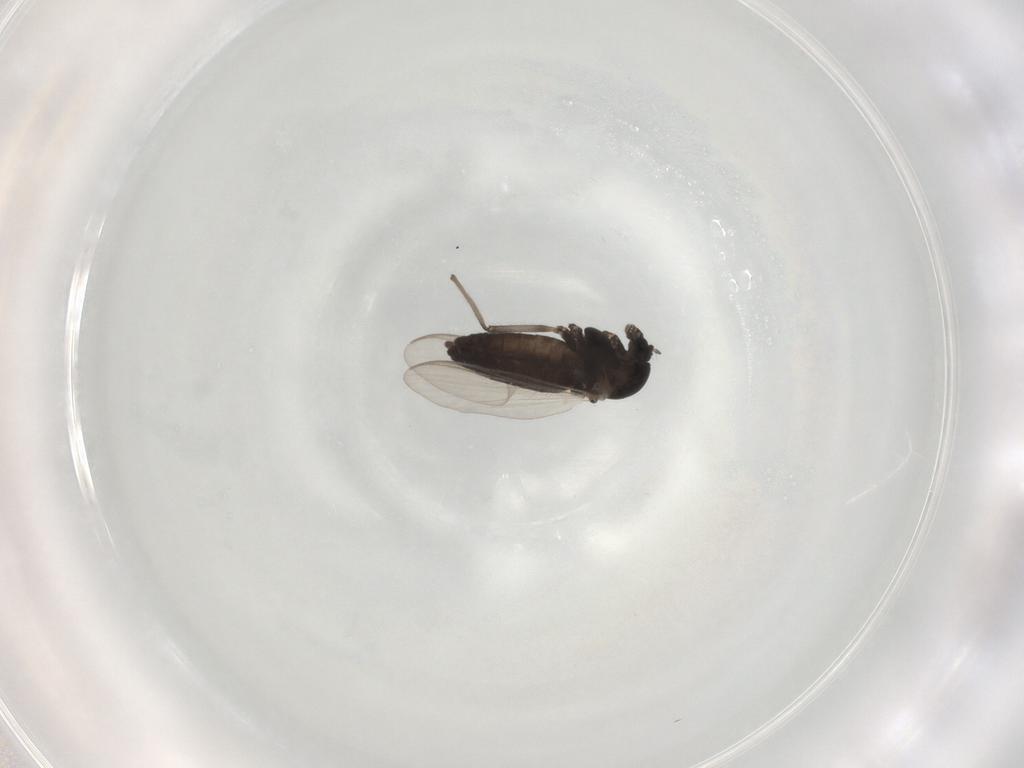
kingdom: Animalia
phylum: Arthropoda
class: Insecta
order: Diptera
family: Chironomidae
